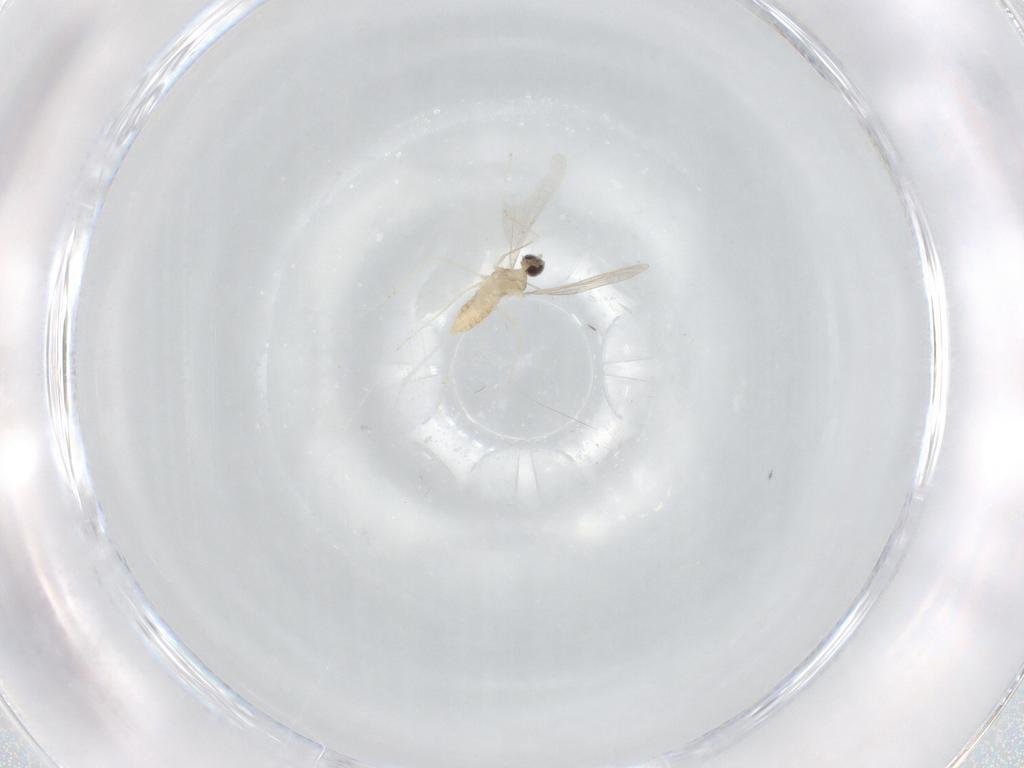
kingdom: Animalia
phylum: Arthropoda
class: Insecta
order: Diptera
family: Cecidomyiidae
